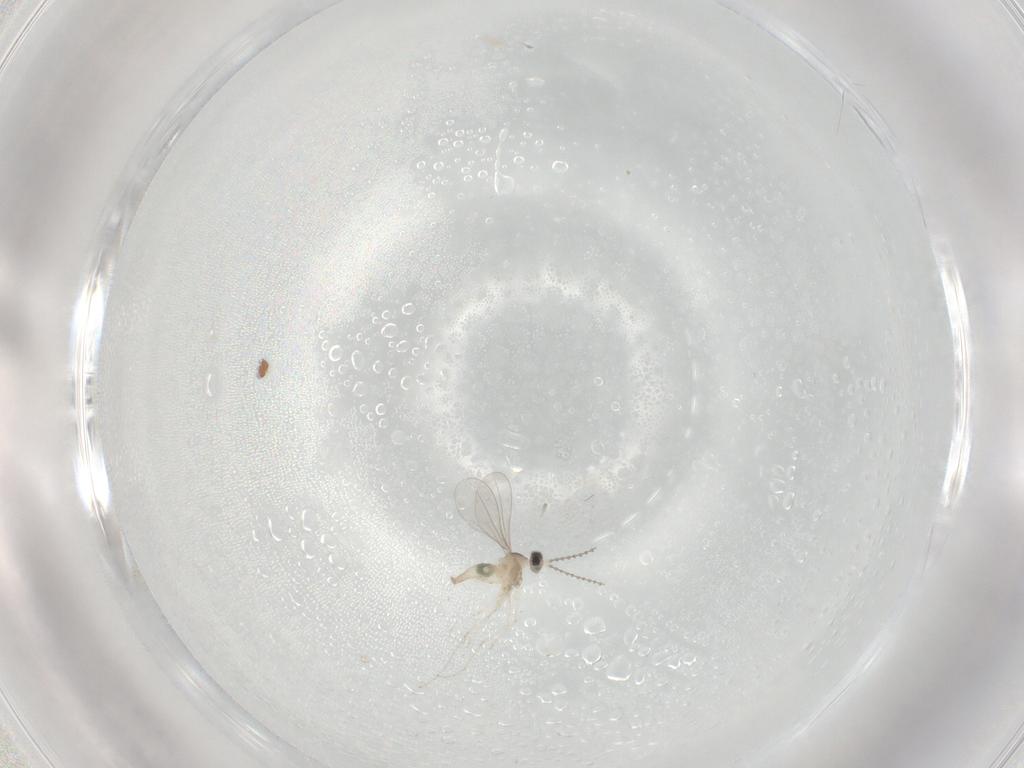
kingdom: Animalia
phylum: Arthropoda
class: Insecta
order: Diptera
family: Cecidomyiidae
